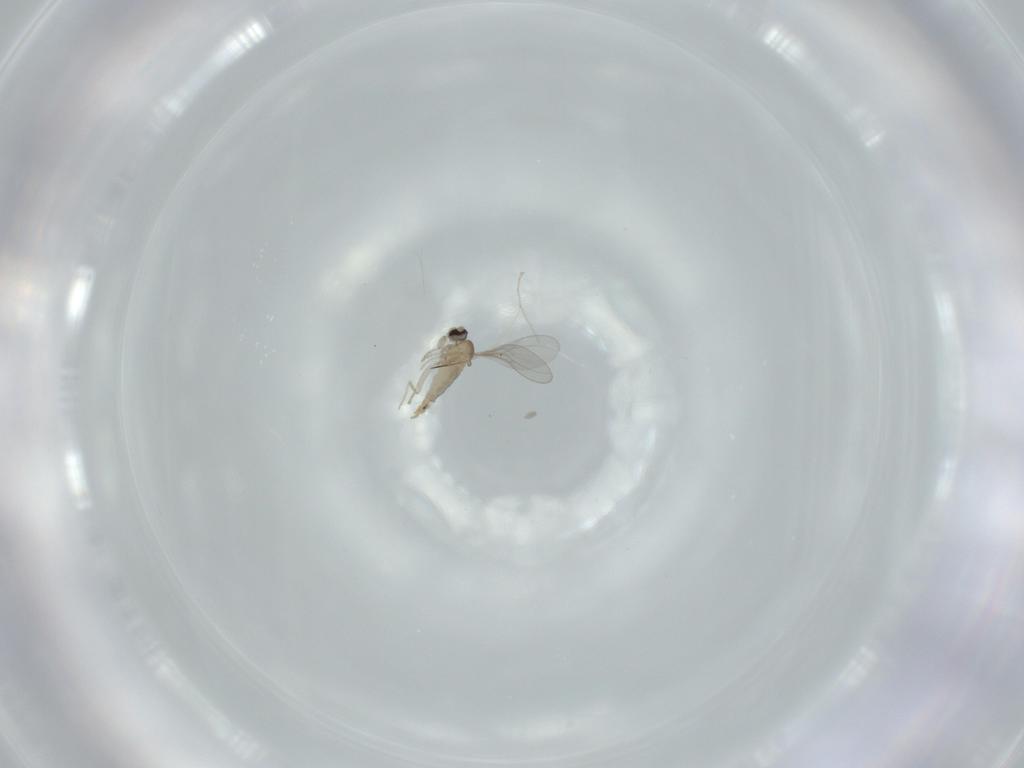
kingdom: Animalia
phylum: Arthropoda
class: Insecta
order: Diptera
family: Cecidomyiidae
